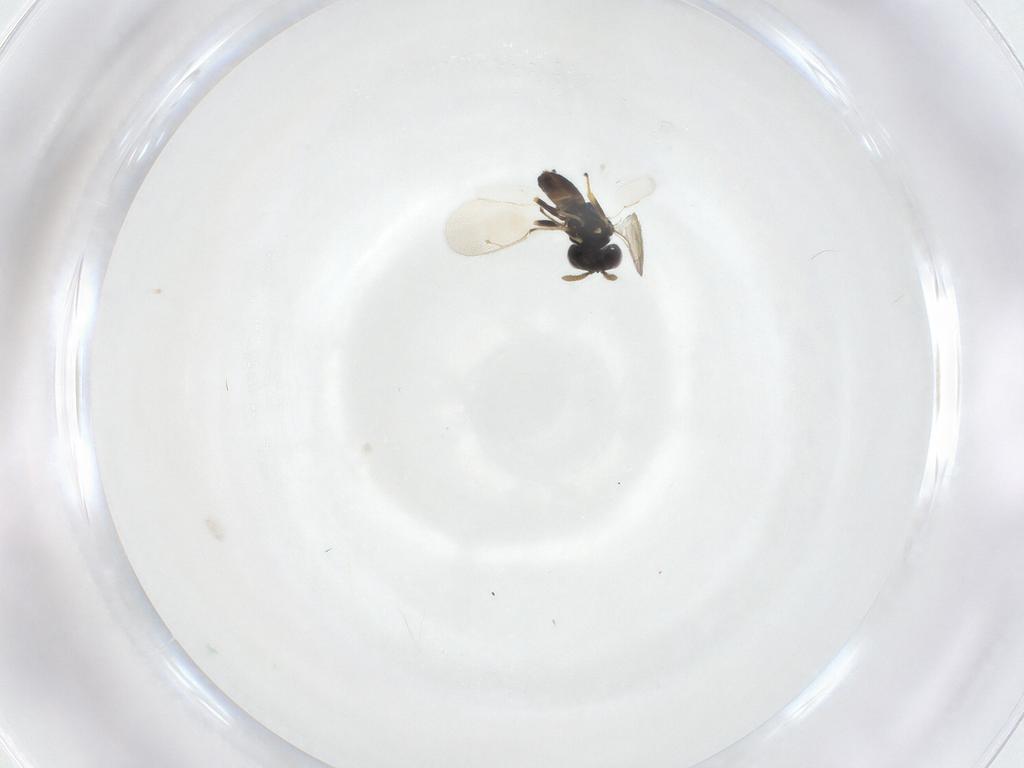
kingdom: Animalia
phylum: Arthropoda
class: Insecta
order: Hymenoptera
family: Pteromalidae
